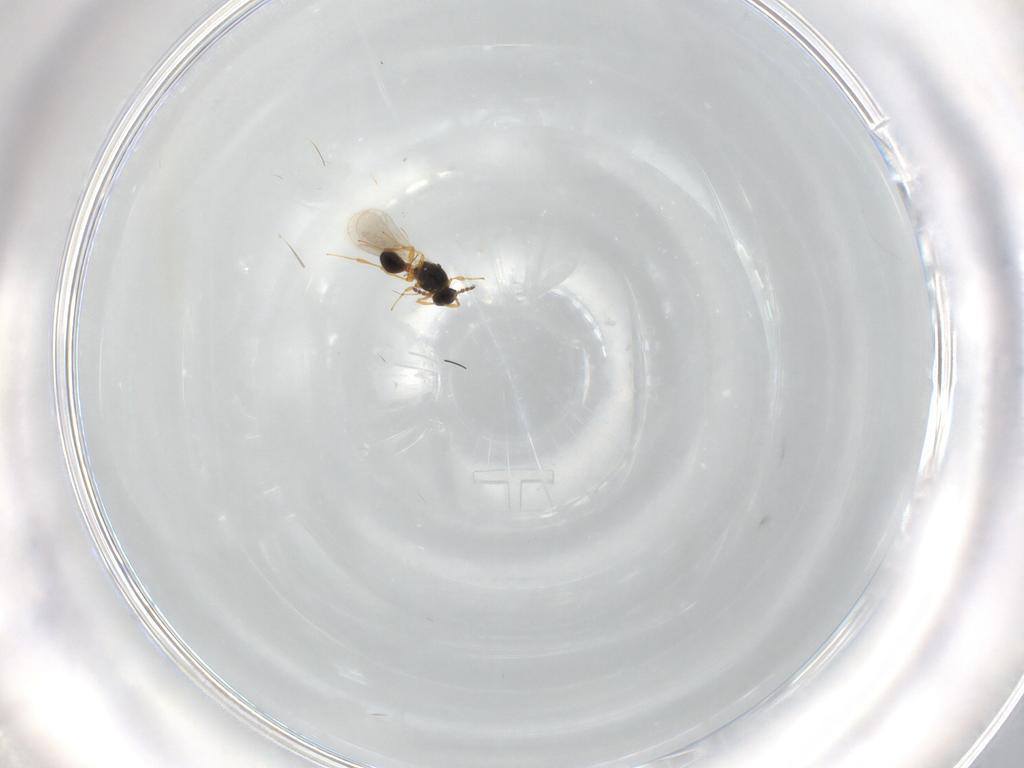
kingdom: Animalia
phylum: Arthropoda
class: Insecta
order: Hymenoptera
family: Platygastridae
